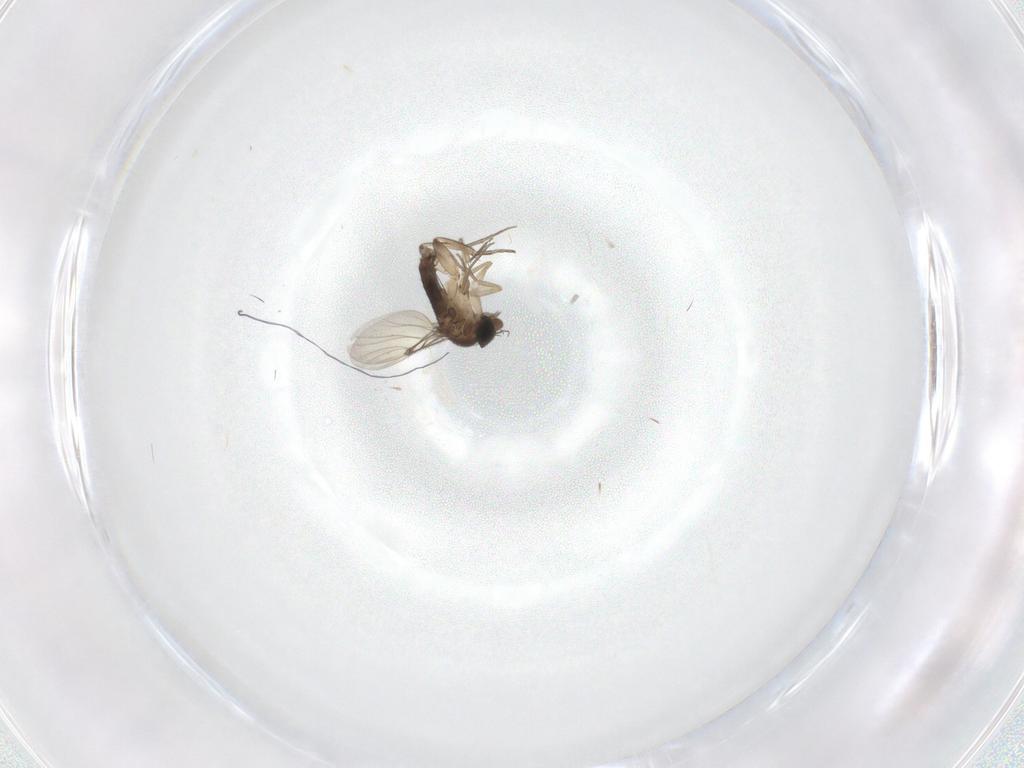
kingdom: Animalia
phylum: Arthropoda
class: Insecta
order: Diptera
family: Phoridae
